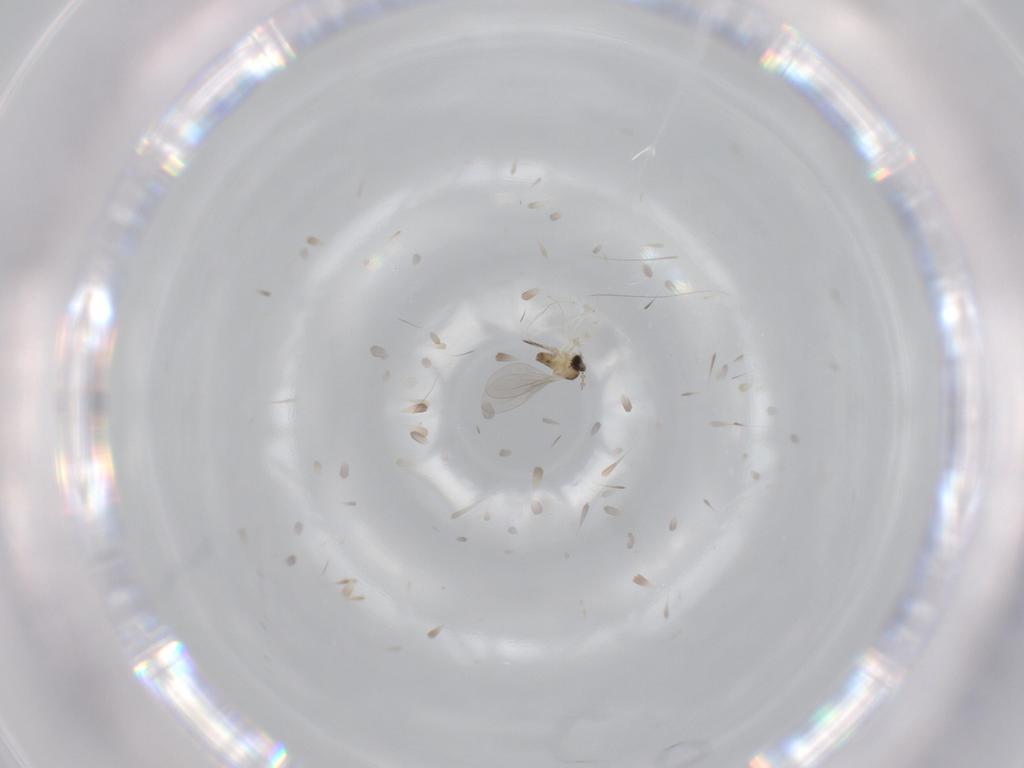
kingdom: Animalia
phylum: Arthropoda
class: Insecta
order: Diptera
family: Cecidomyiidae
